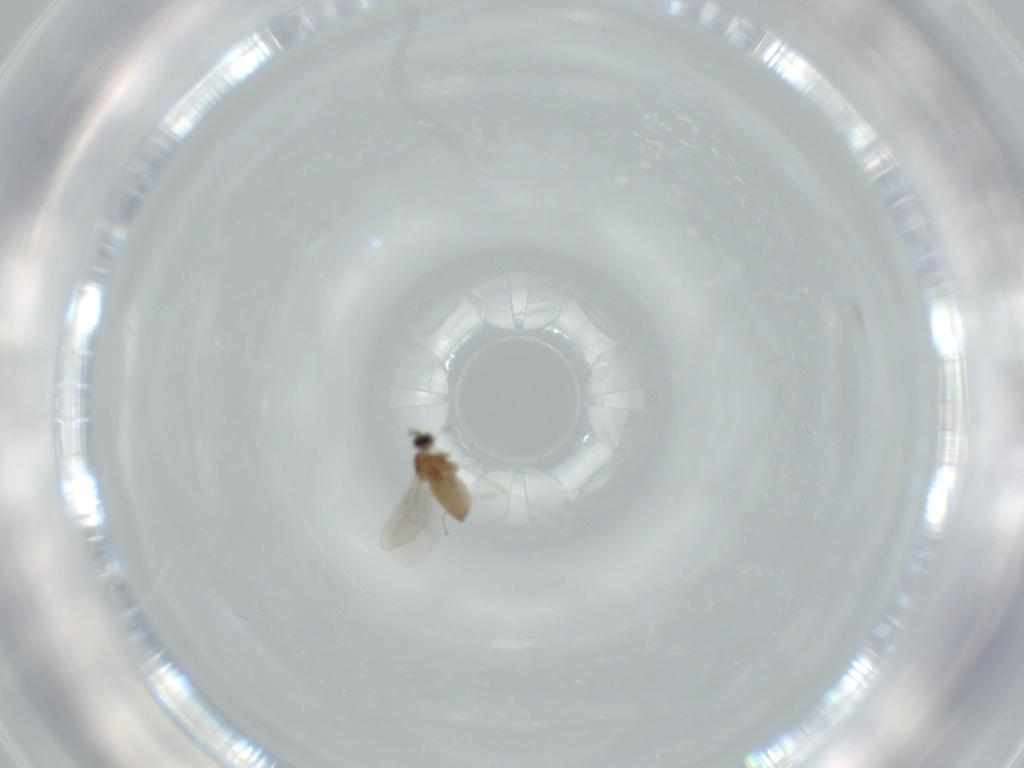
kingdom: Animalia
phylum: Arthropoda
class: Insecta
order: Diptera
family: Cecidomyiidae
